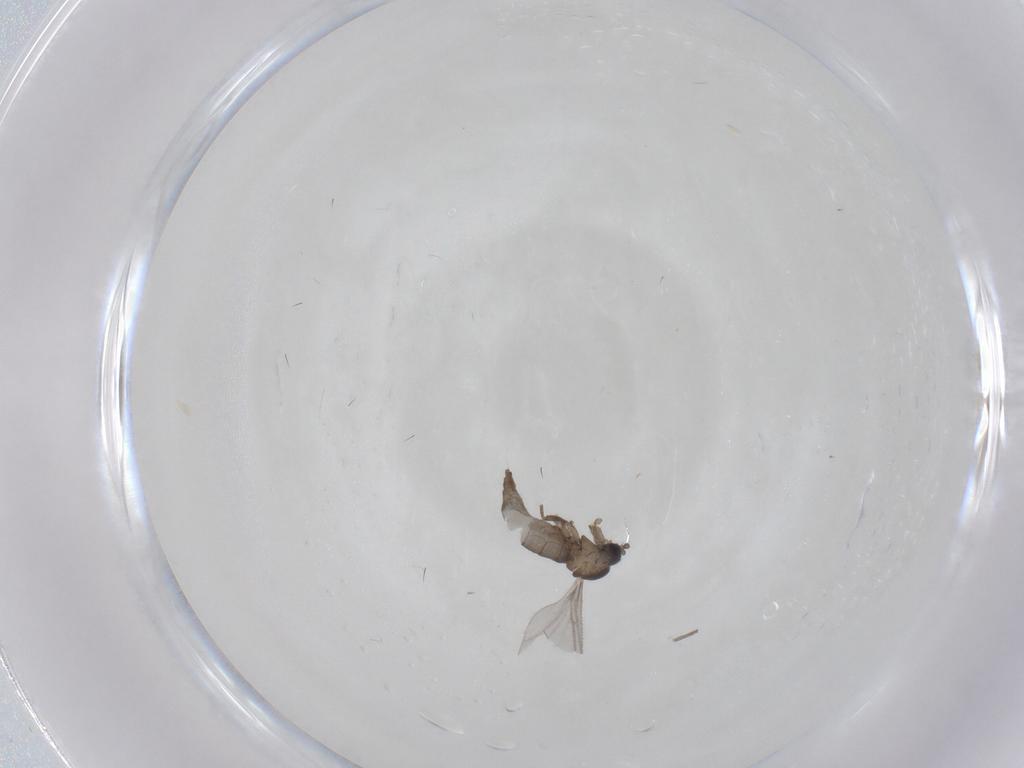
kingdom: Animalia
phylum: Arthropoda
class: Insecta
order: Diptera
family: Sciaridae
